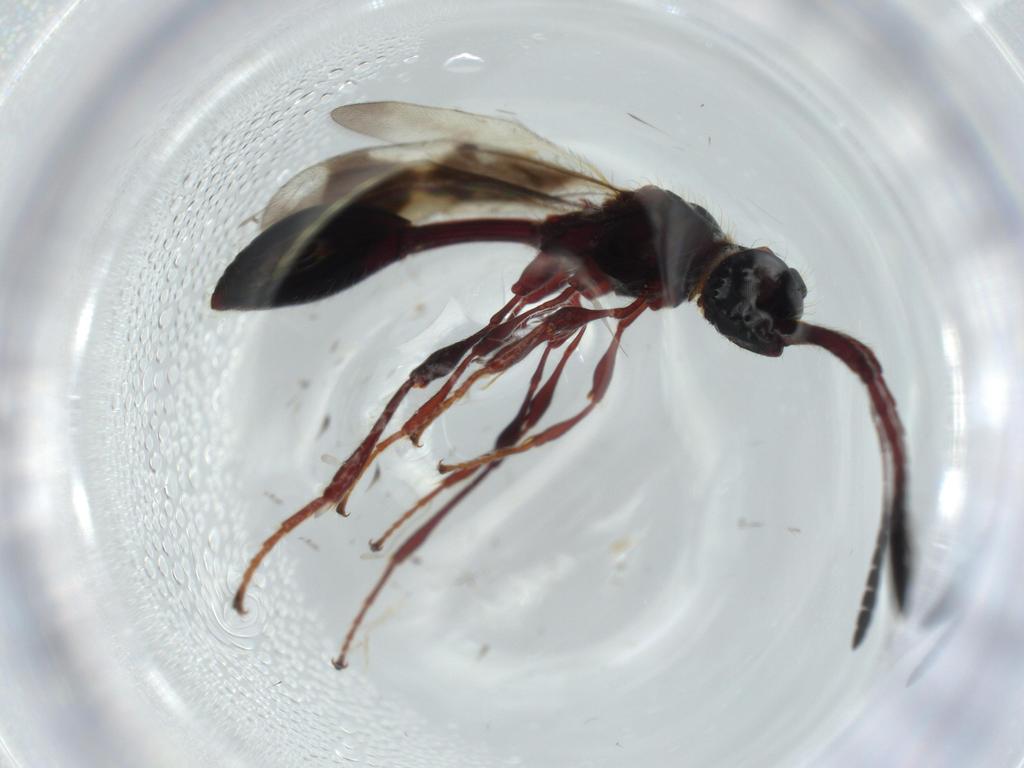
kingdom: Animalia
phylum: Arthropoda
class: Insecta
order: Hymenoptera
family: Diapriidae
